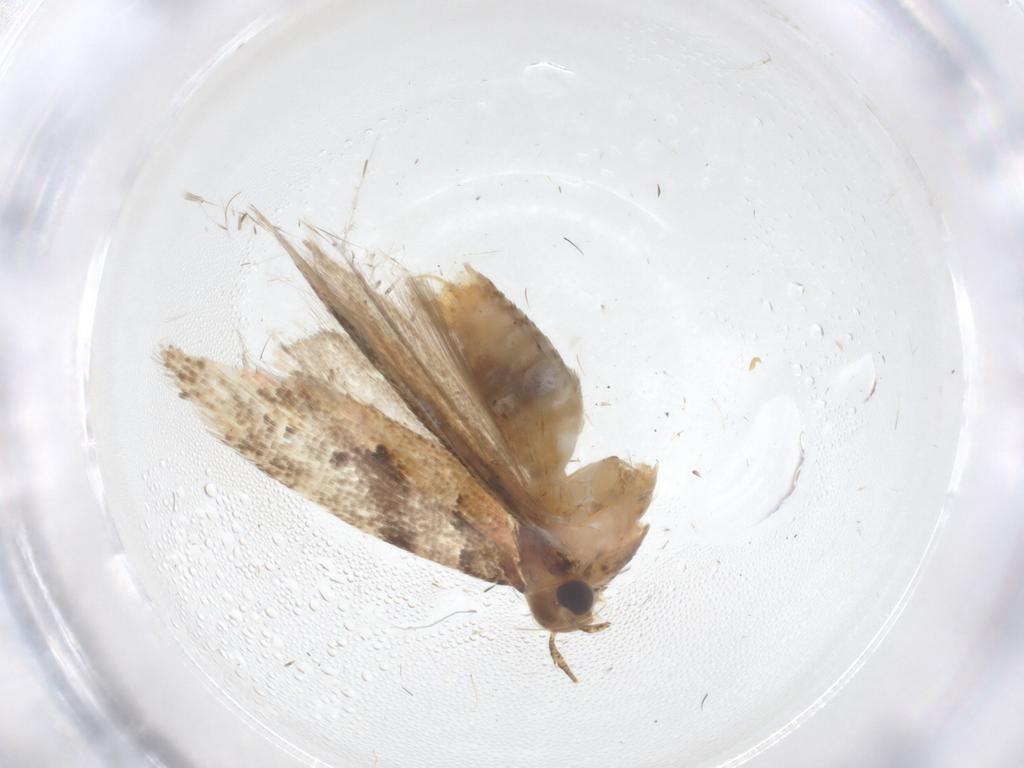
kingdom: Animalia
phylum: Arthropoda
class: Insecta
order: Lepidoptera
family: Gelechiidae
